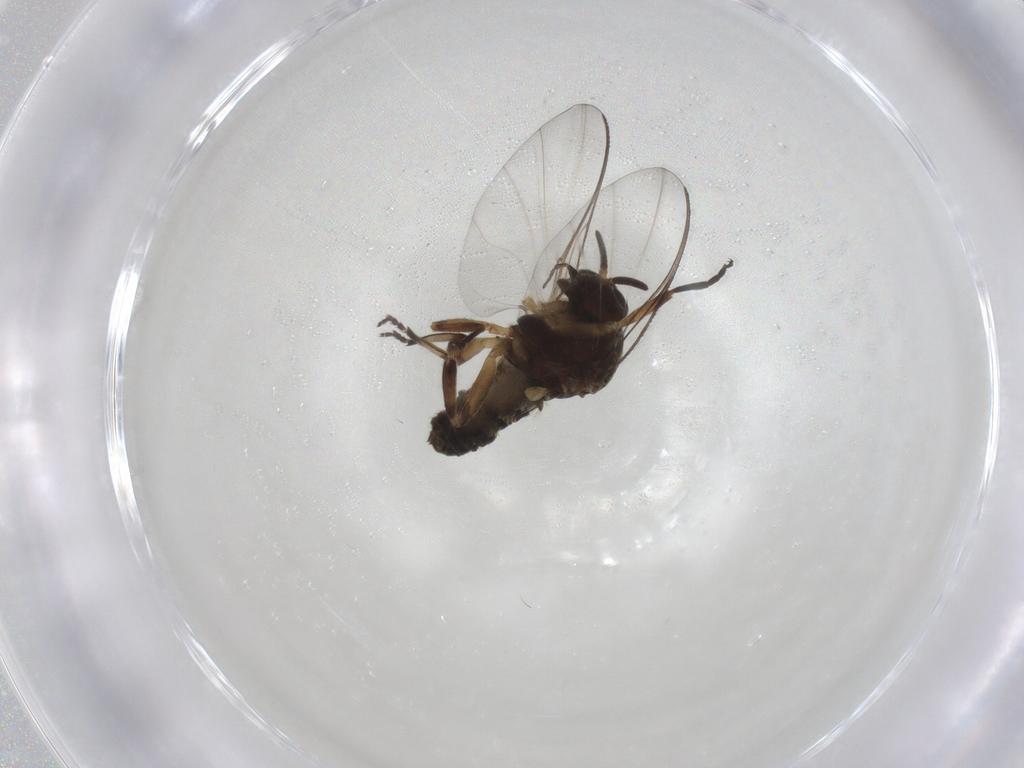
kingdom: Animalia
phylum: Arthropoda
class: Insecta
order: Diptera
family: Simuliidae
